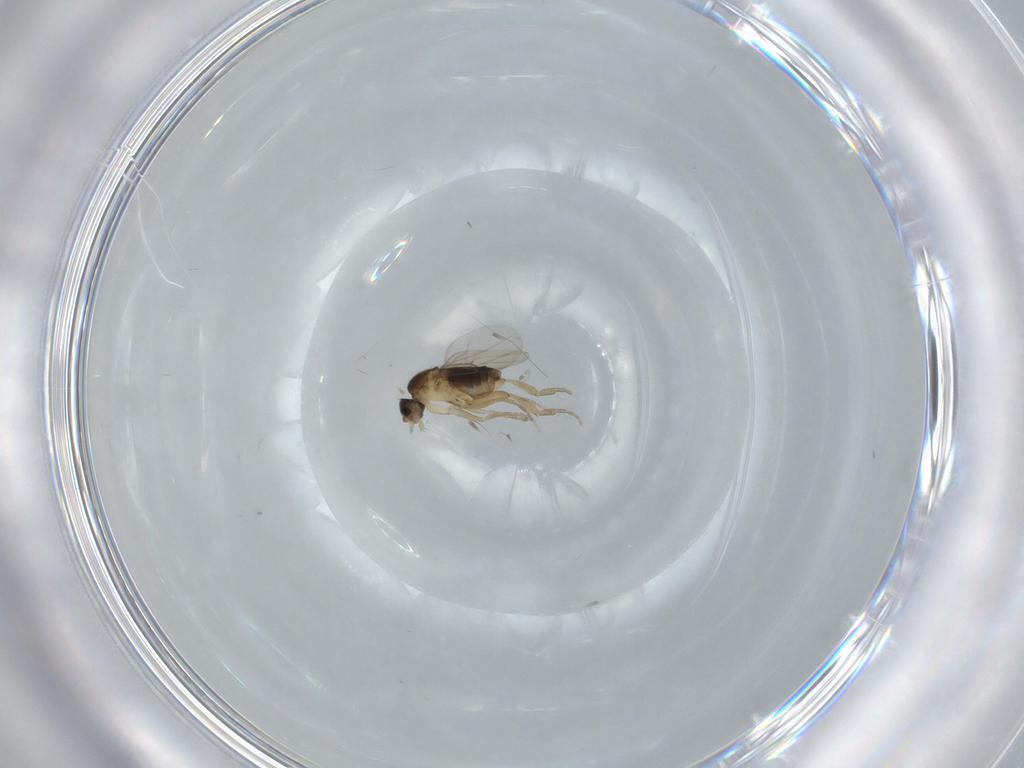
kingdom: Animalia
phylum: Arthropoda
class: Insecta
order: Diptera
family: Phoridae
